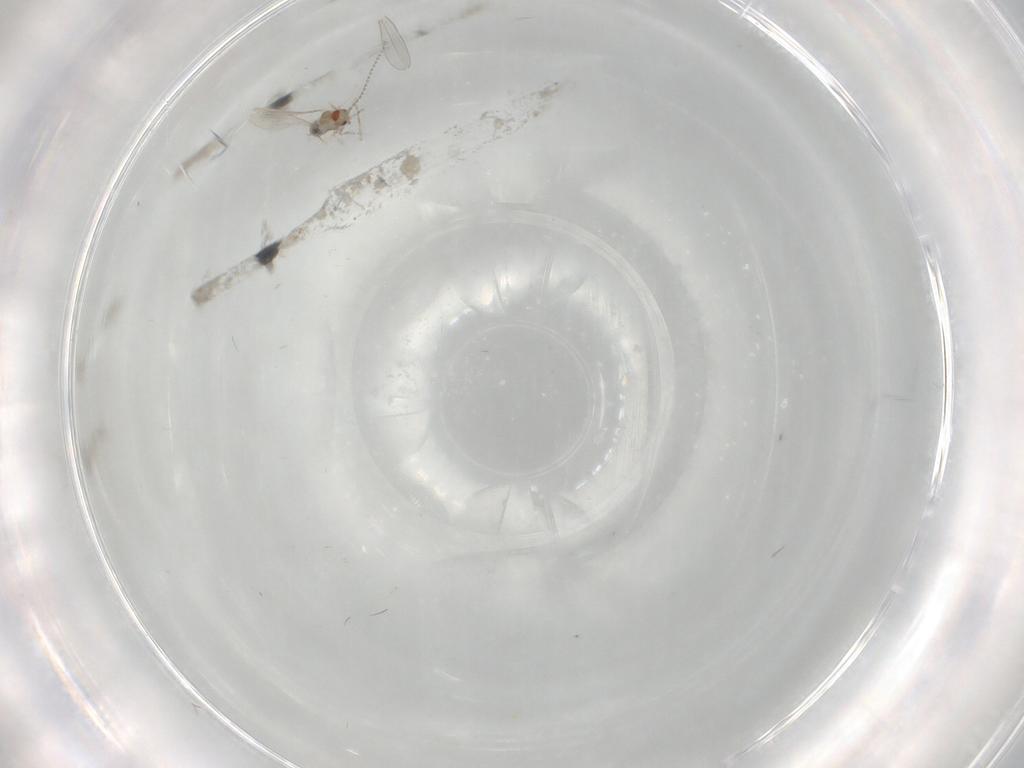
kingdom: Animalia
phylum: Arthropoda
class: Insecta
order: Diptera
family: Cecidomyiidae
